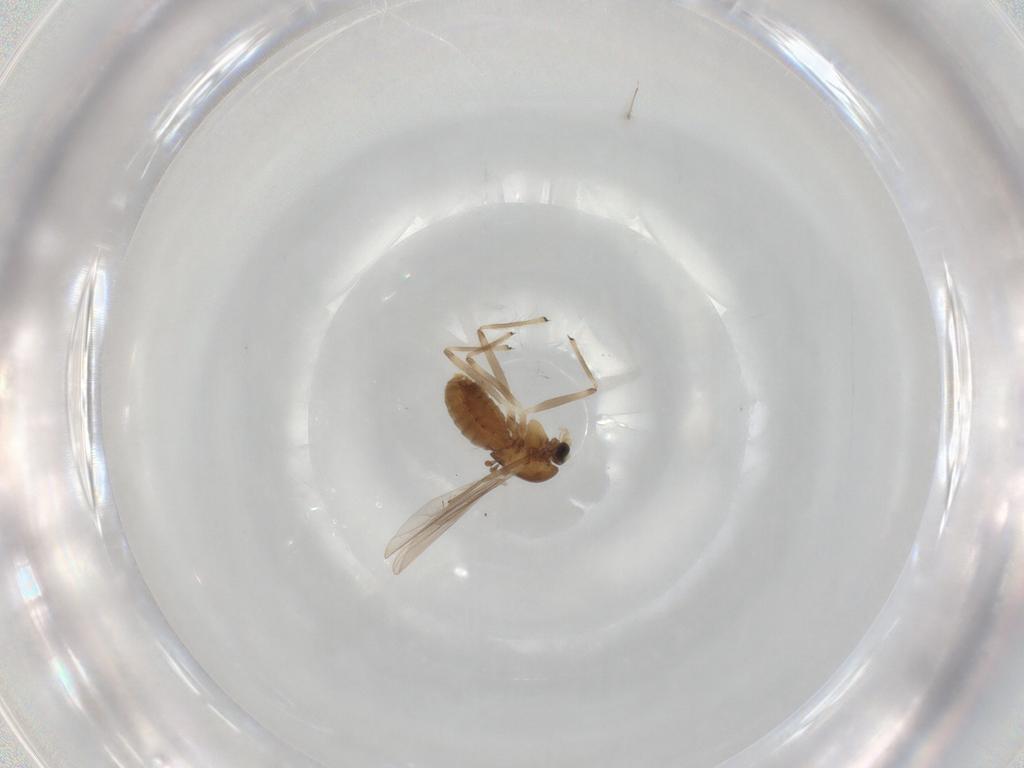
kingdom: Animalia
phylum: Arthropoda
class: Insecta
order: Diptera
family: Chironomidae
